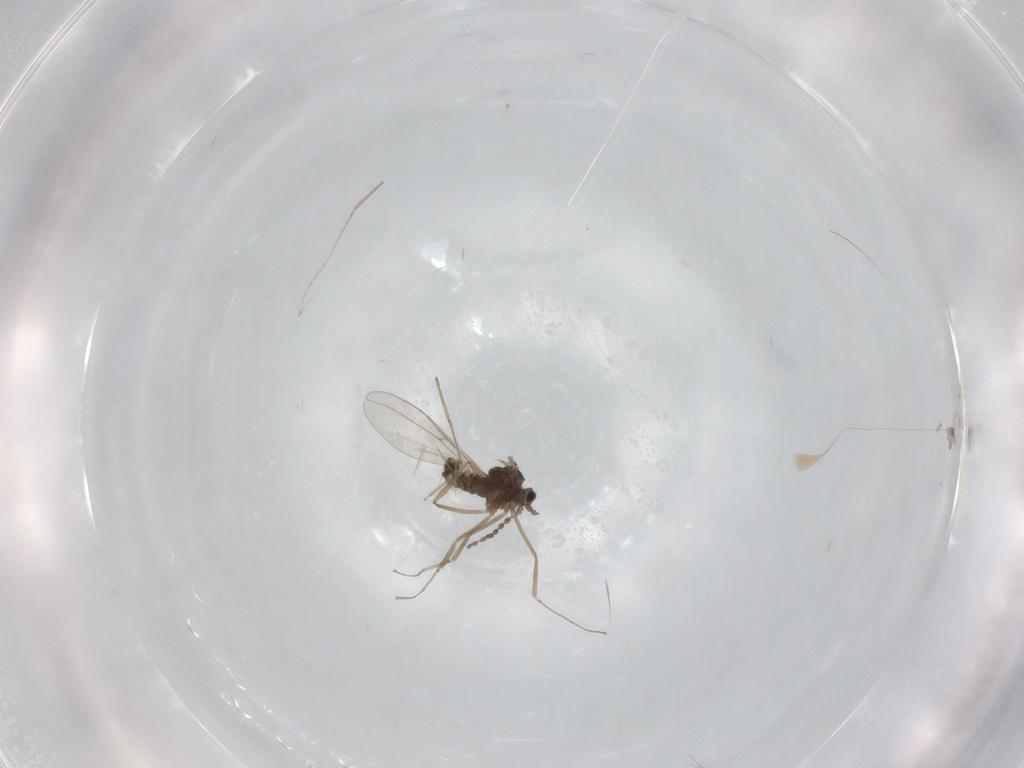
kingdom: Animalia
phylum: Arthropoda
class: Insecta
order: Diptera
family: Cecidomyiidae
